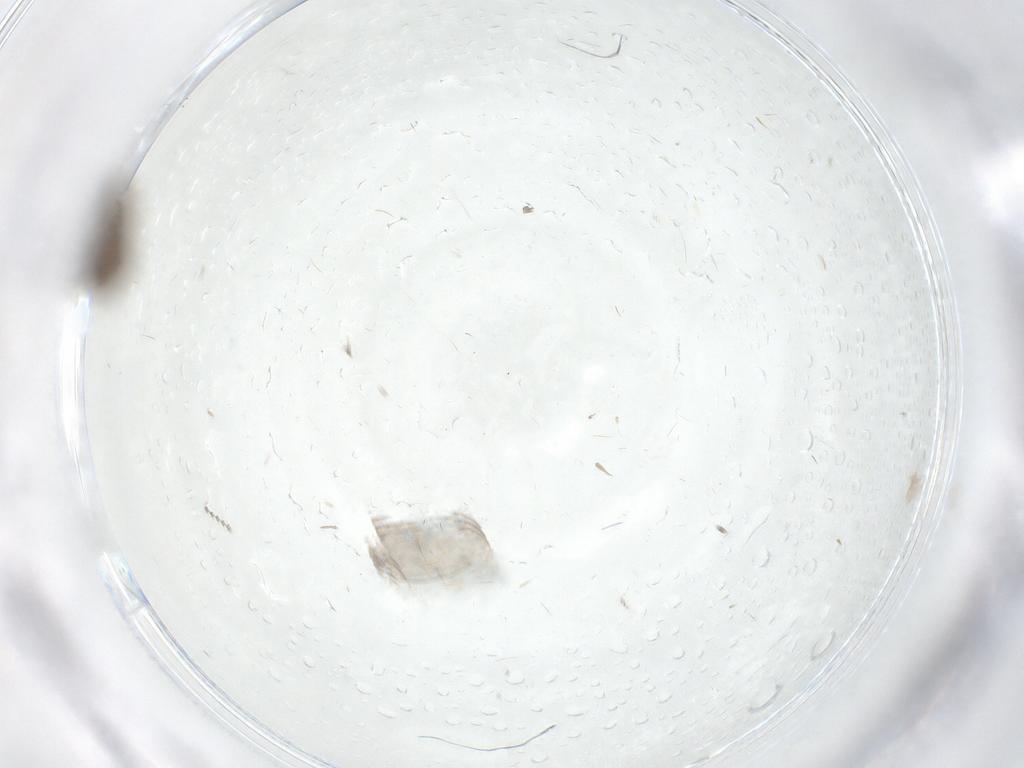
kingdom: Animalia
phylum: Arthropoda
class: Insecta
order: Diptera
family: Psychodidae
